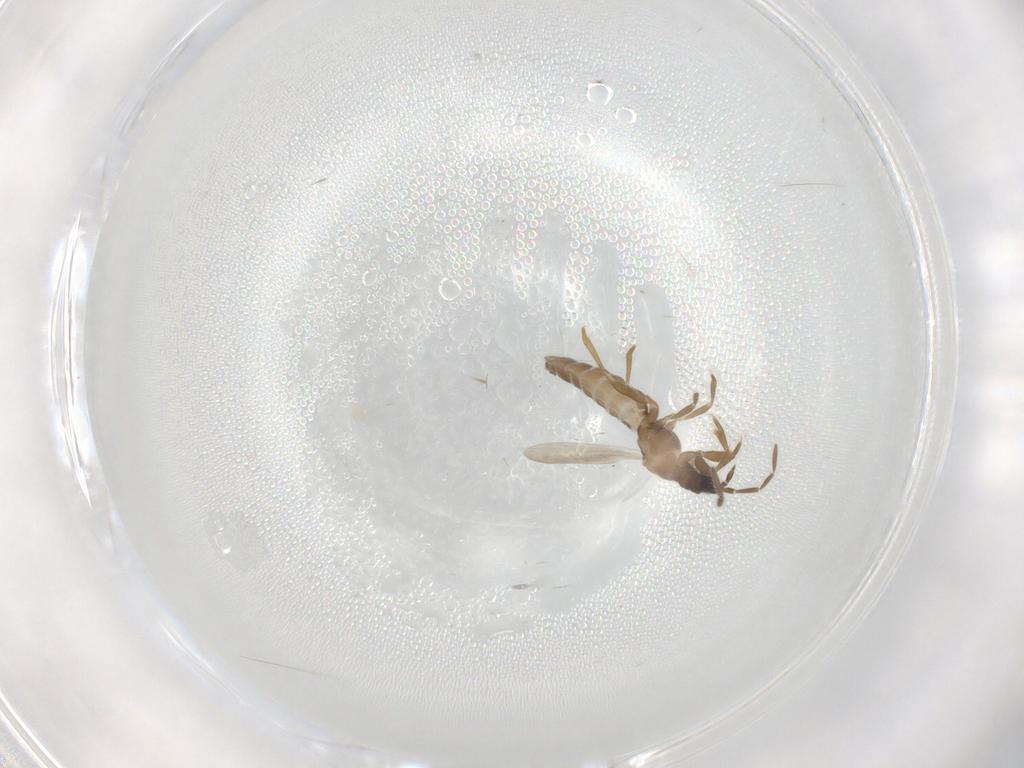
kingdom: Animalia
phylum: Arthropoda
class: Insecta
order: Hemiptera
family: Enicocephalidae
